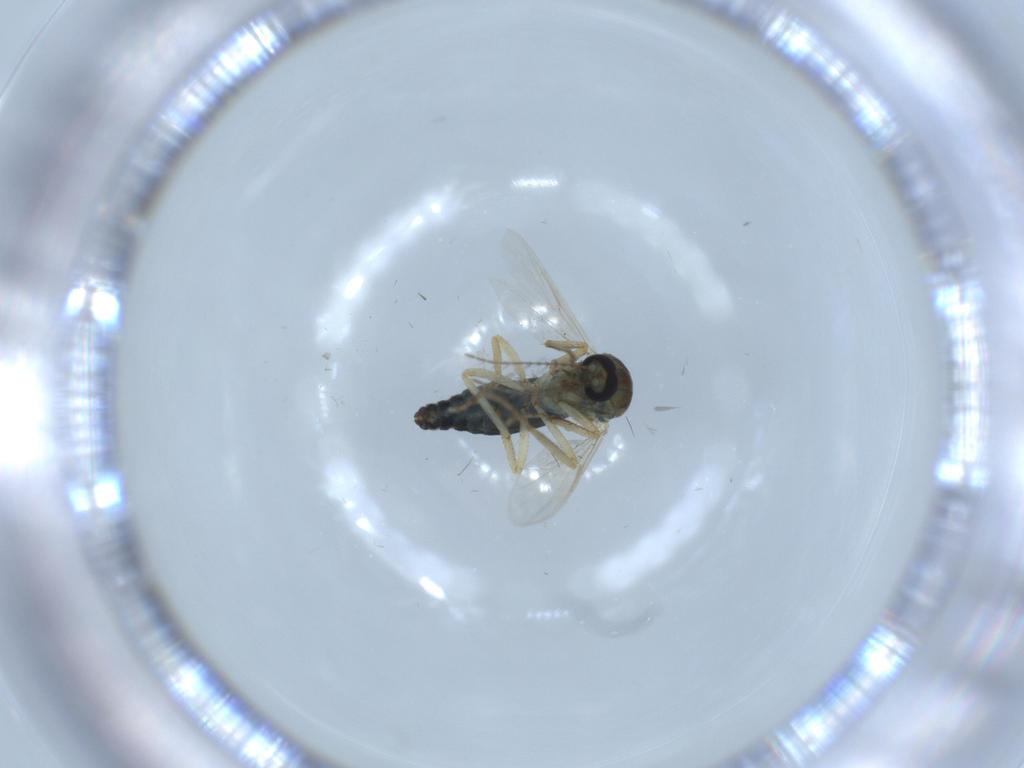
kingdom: Animalia
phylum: Arthropoda
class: Insecta
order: Diptera
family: Ceratopogonidae
